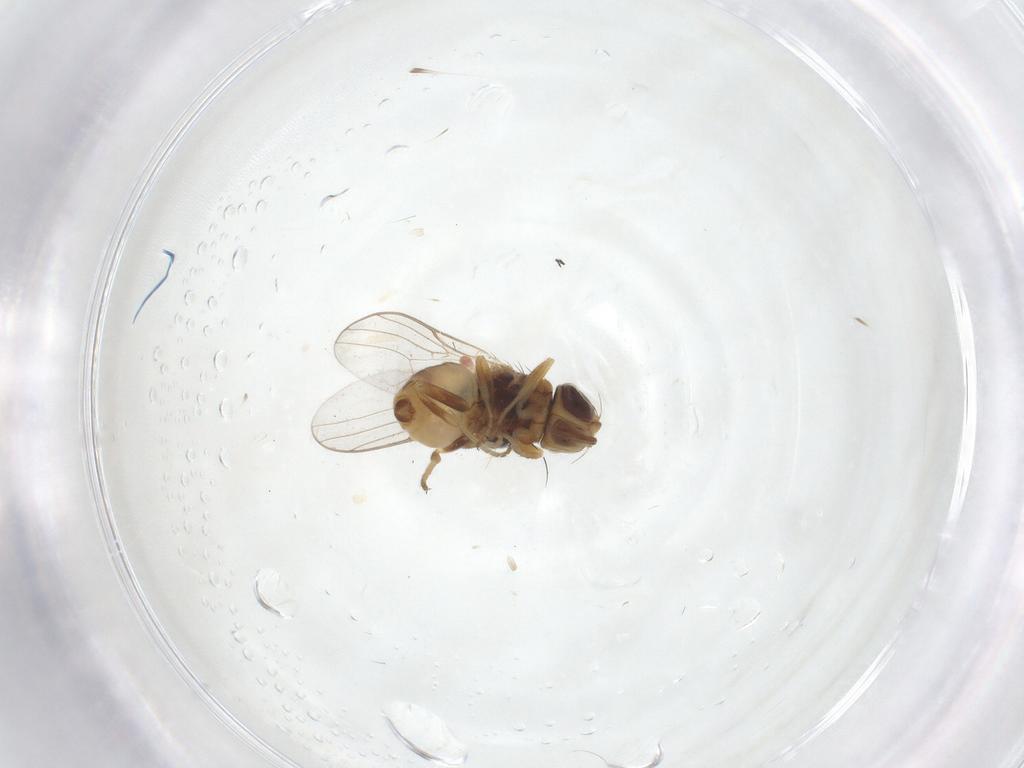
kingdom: Animalia
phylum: Arthropoda
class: Insecta
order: Diptera
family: Chloropidae
